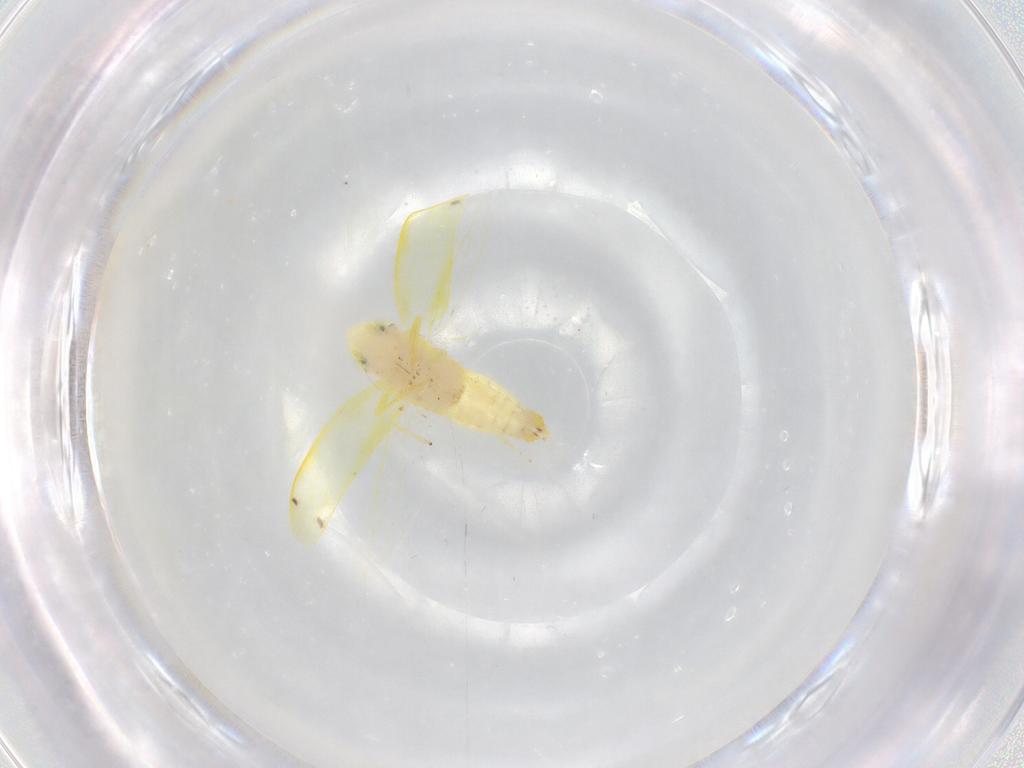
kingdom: Animalia
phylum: Arthropoda
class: Insecta
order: Hemiptera
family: Cicadellidae
